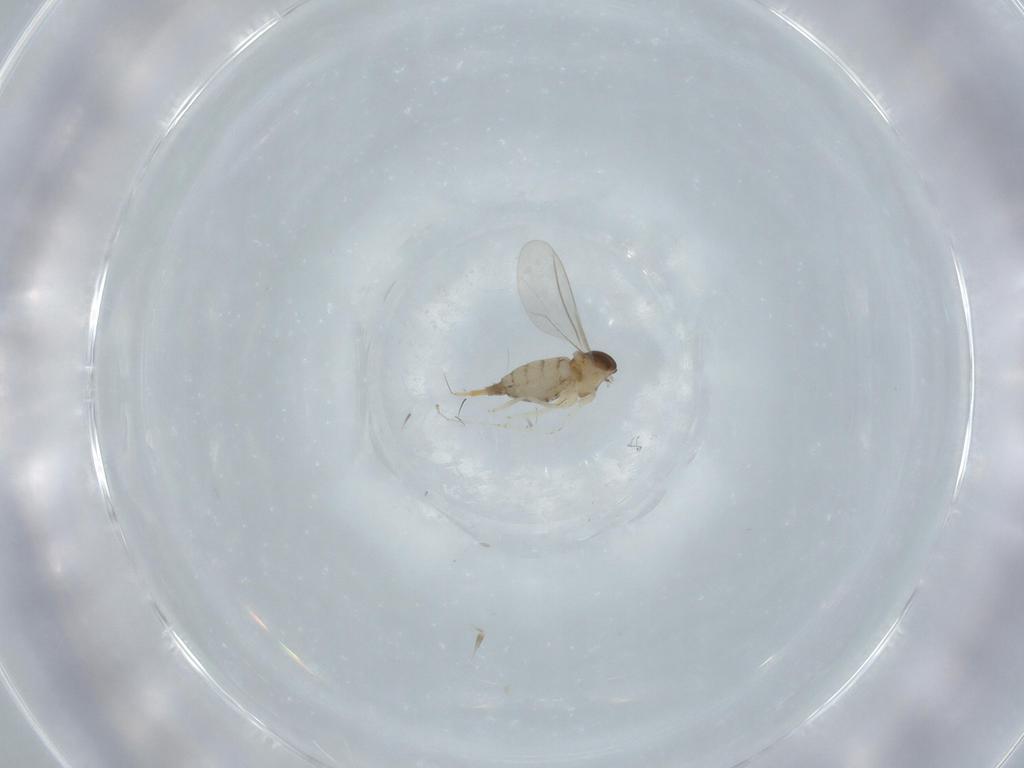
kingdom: Animalia
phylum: Arthropoda
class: Insecta
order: Diptera
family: Cecidomyiidae
